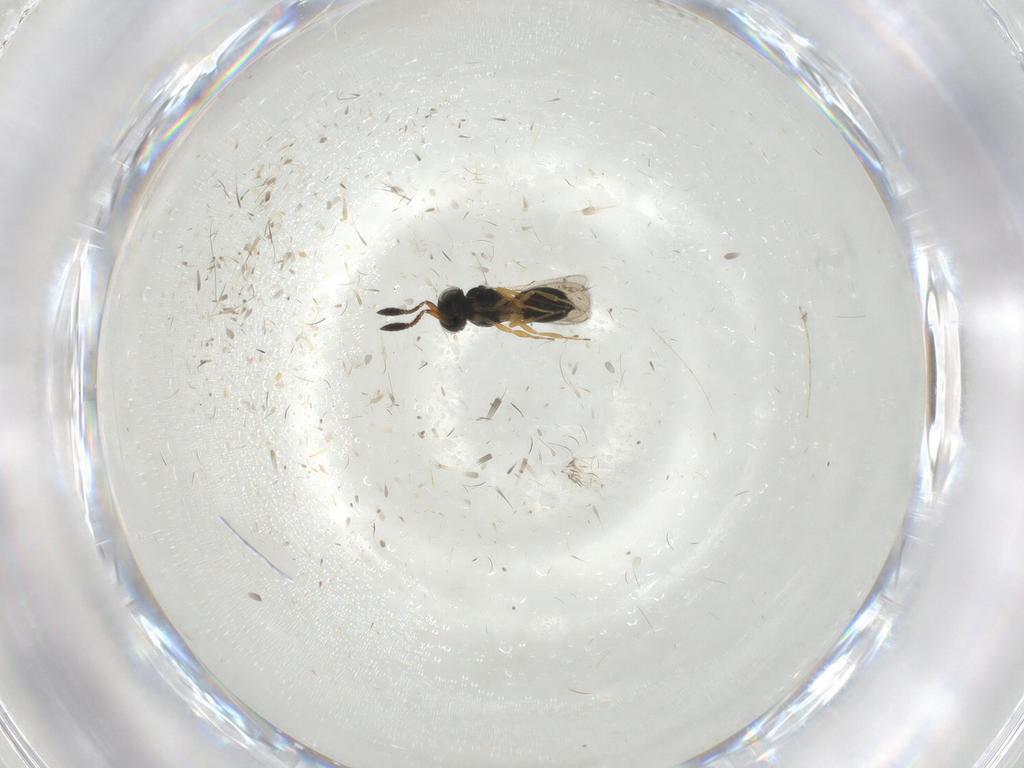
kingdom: Animalia
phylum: Arthropoda
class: Insecta
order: Hymenoptera
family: Scelionidae
